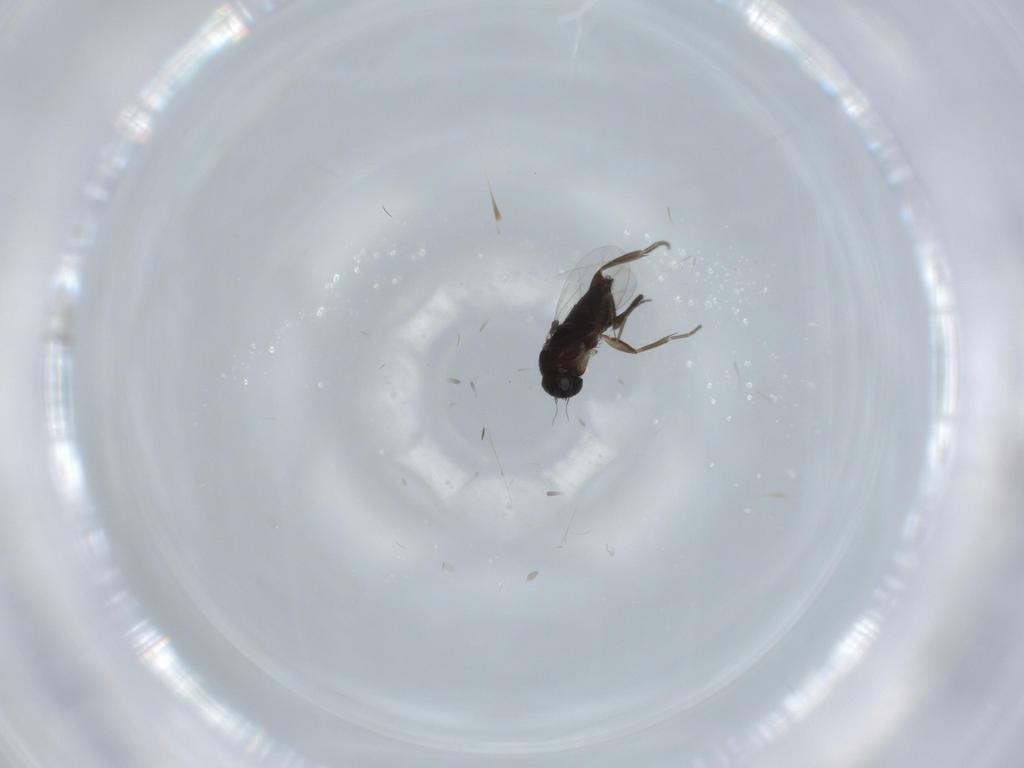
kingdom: Animalia
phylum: Arthropoda
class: Insecta
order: Diptera
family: Phoridae
